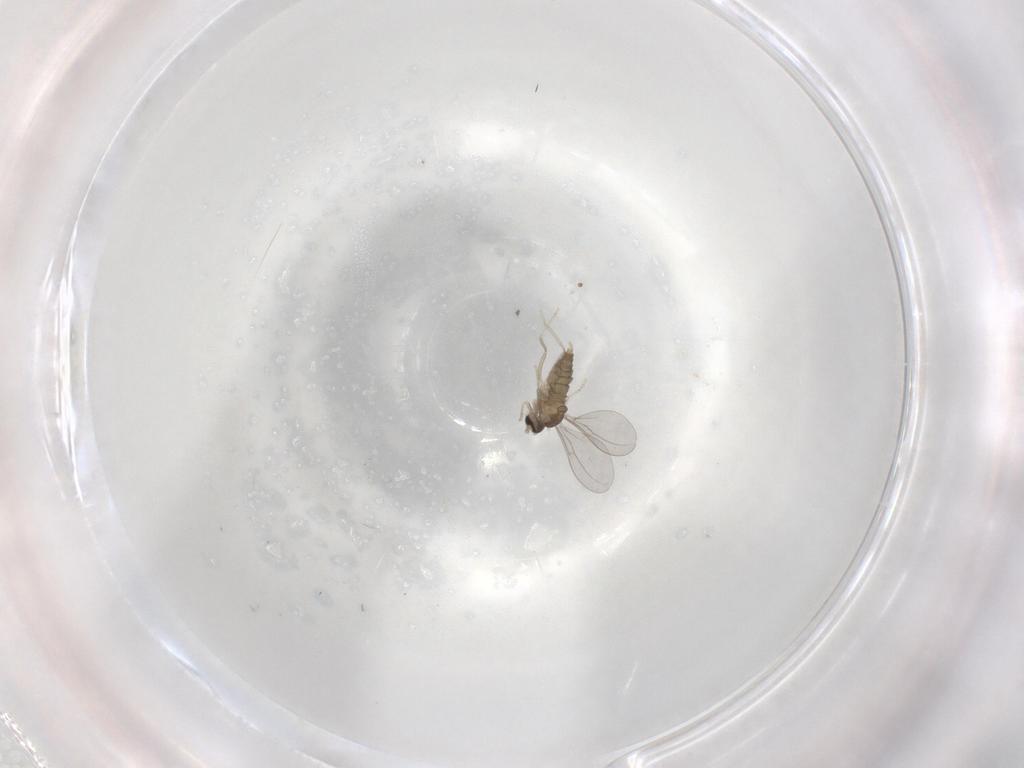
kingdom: Animalia
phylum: Arthropoda
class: Insecta
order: Diptera
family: Cecidomyiidae
